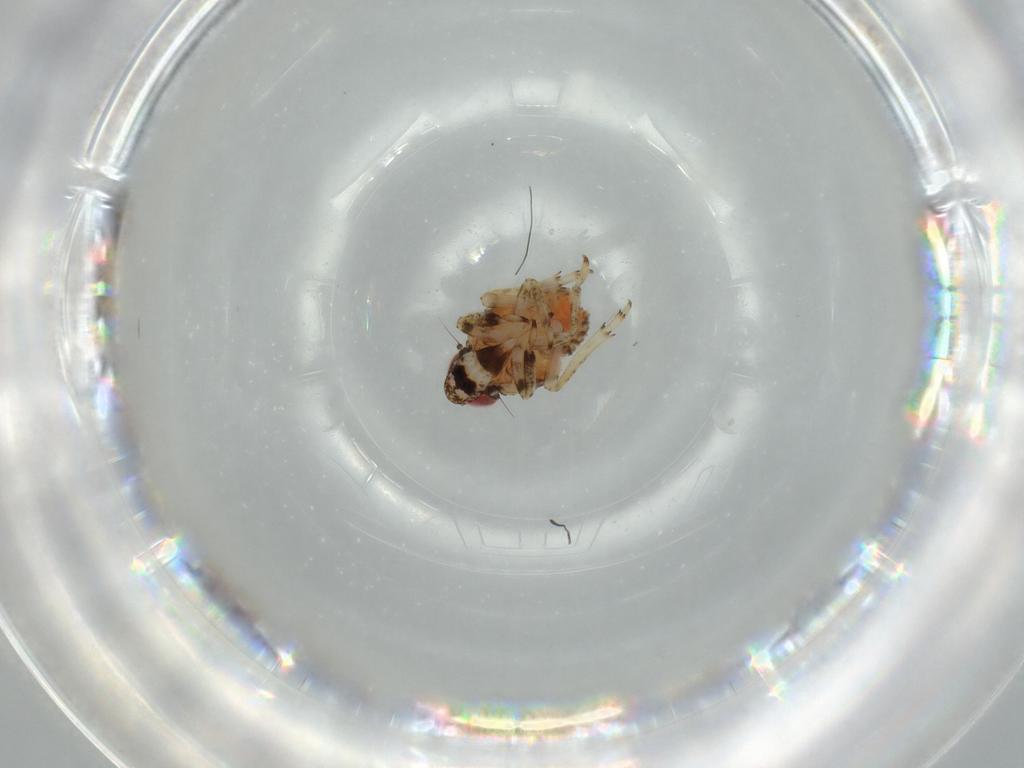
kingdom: Animalia
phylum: Arthropoda
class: Insecta
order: Hemiptera
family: Issidae
